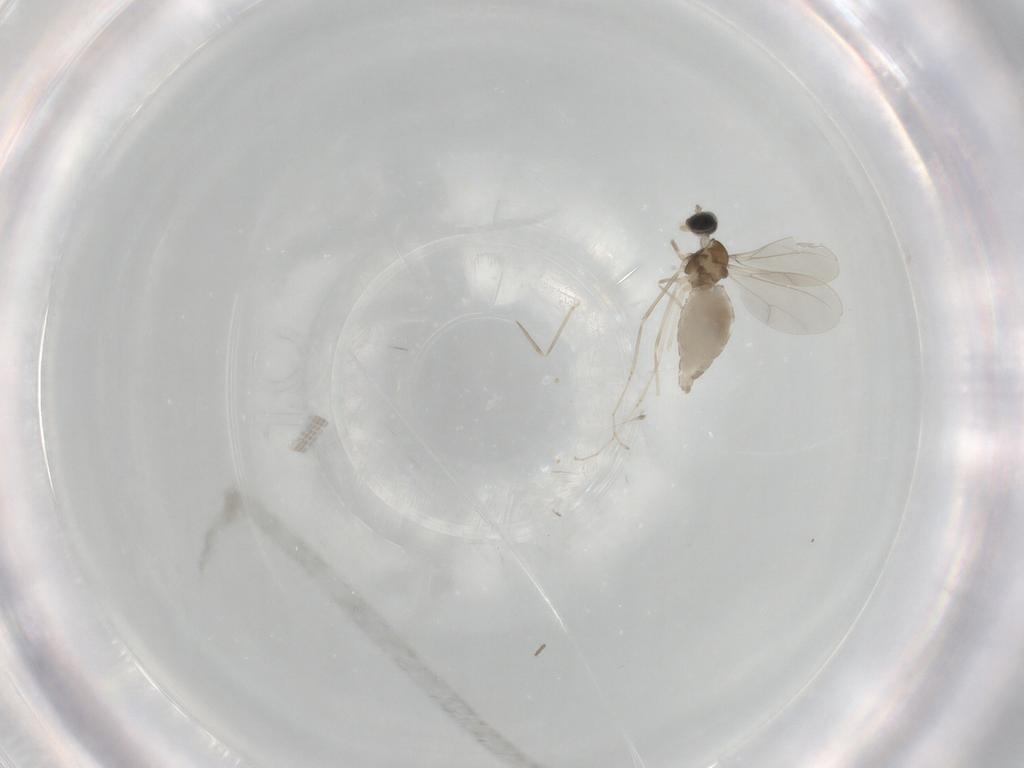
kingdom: Animalia
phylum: Arthropoda
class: Insecta
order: Diptera
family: Cecidomyiidae
